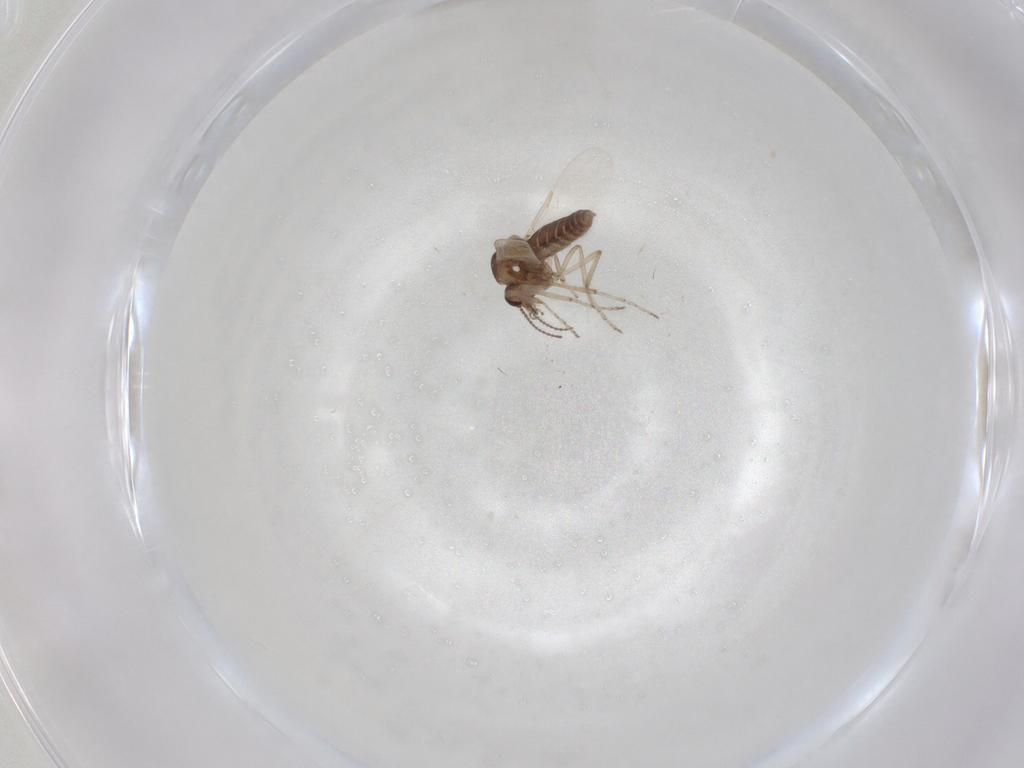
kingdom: Animalia
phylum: Arthropoda
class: Insecta
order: Diptera
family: Ceratopogonidae
